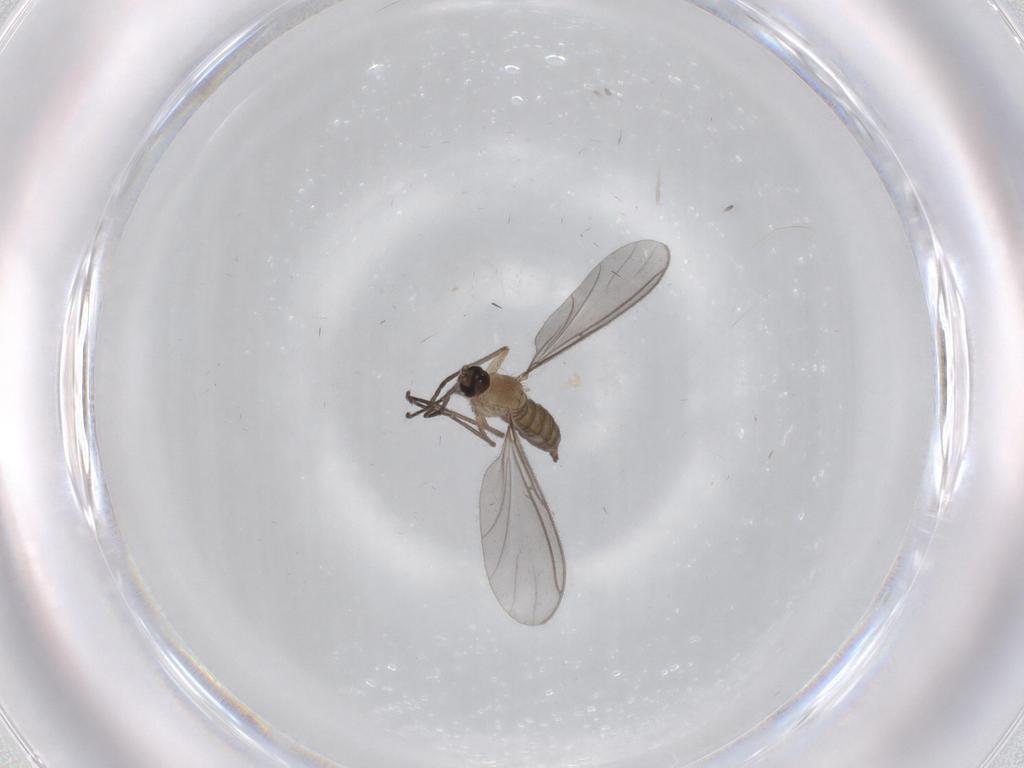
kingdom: Animalia
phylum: Arthropoda
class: Insecta
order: Diptera
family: Sciaridae
